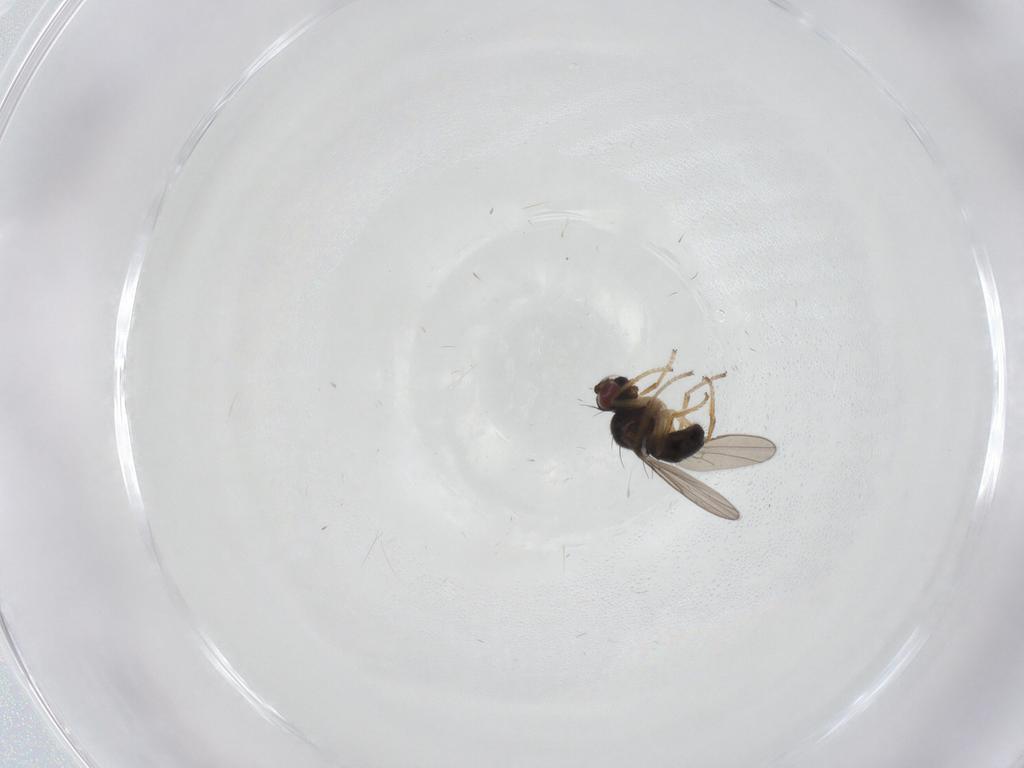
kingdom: Animalia
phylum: Arthropoda
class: Insecta
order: Diptera
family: Ephydridae
